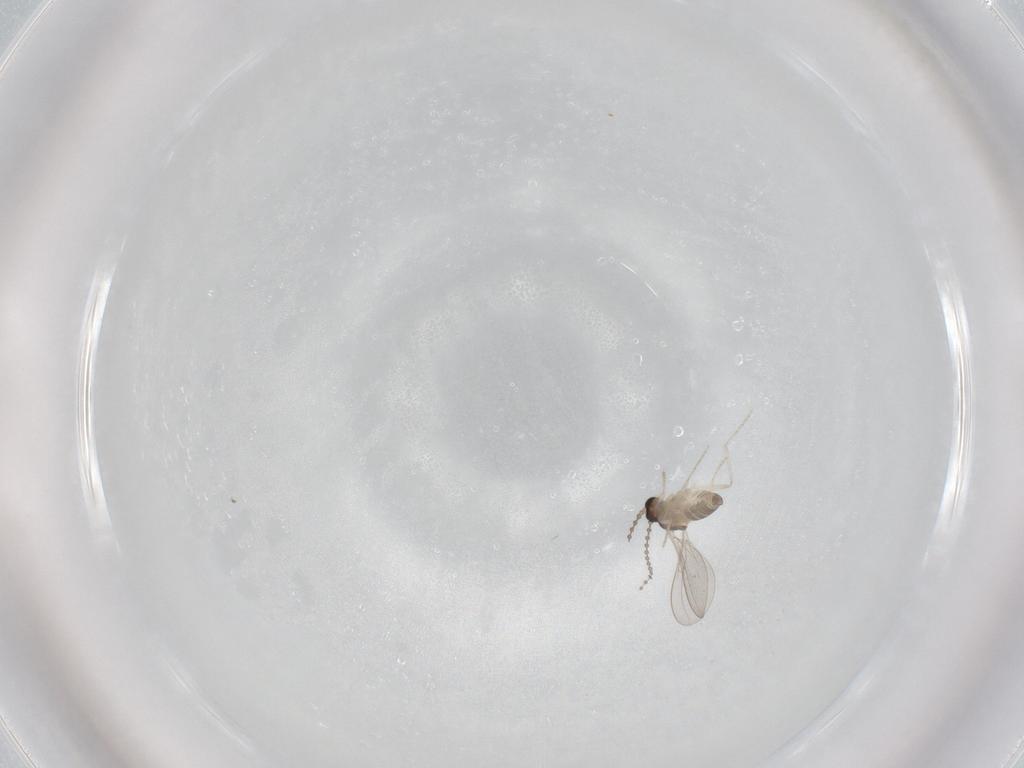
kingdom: Animalia
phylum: Arthropoda
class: Insecta
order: Diptera
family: Cecidomyiidae
